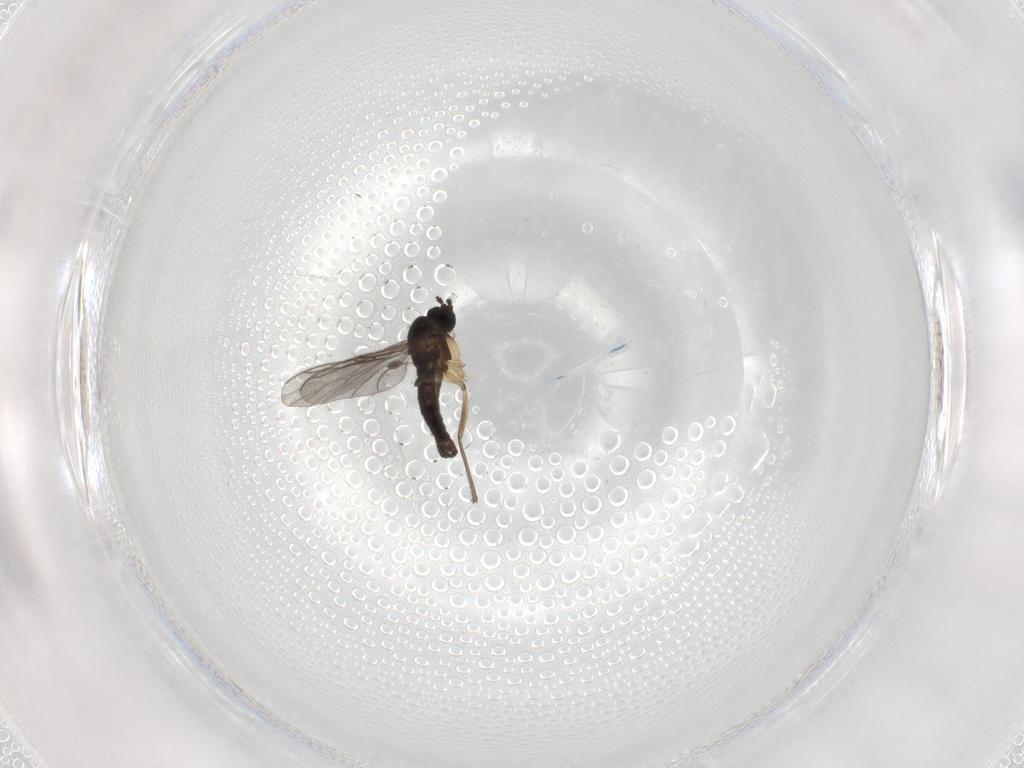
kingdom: Animalia
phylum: Arthropoda
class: Insecta
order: Diptera
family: Sciaridae
